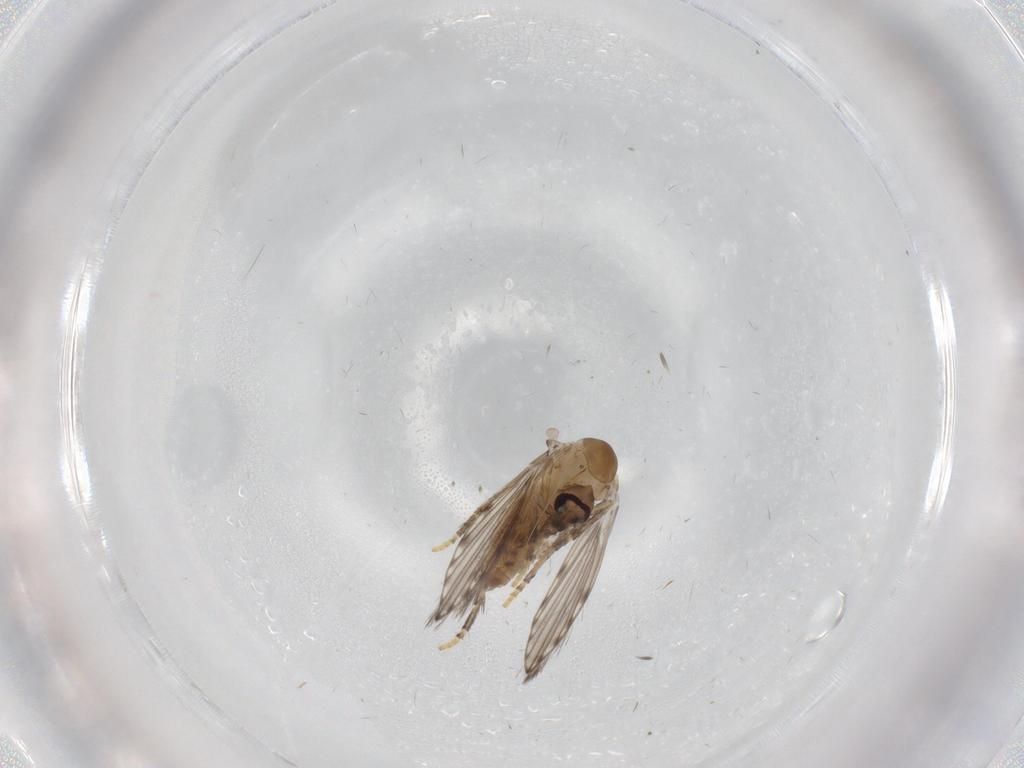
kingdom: Animalia
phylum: Arthropoda
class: Insecta
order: Diptera
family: Psychodidae
